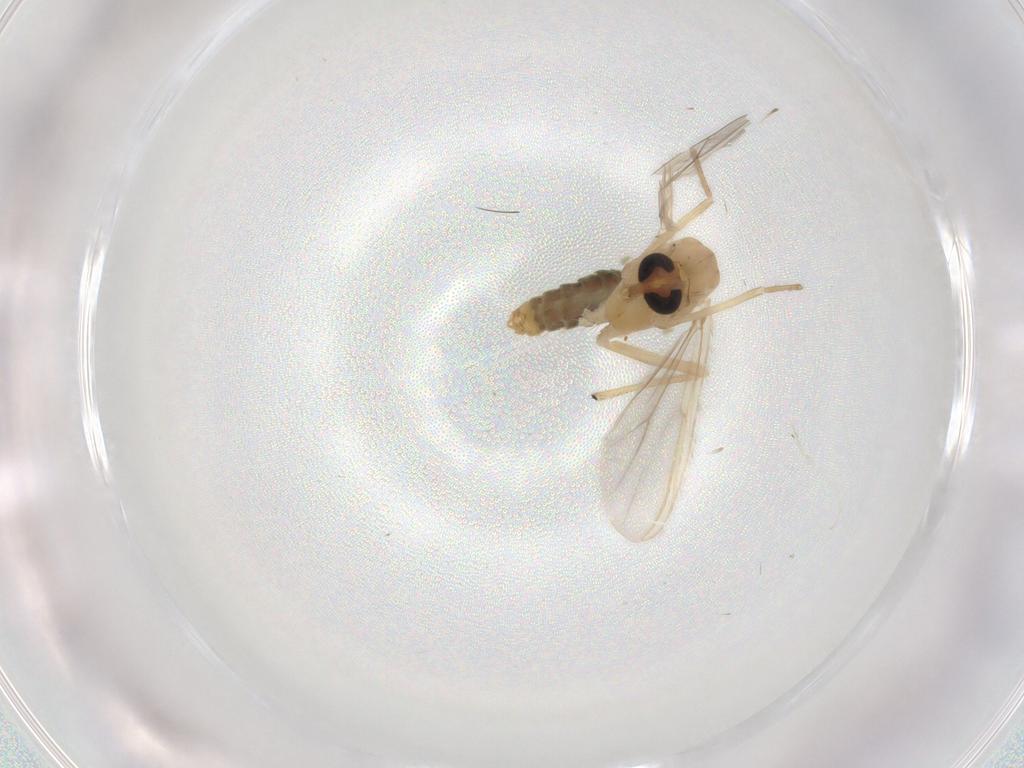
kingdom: Animalia
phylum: Arthropoda
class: Insecta
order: Diptera
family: Chironomidae
